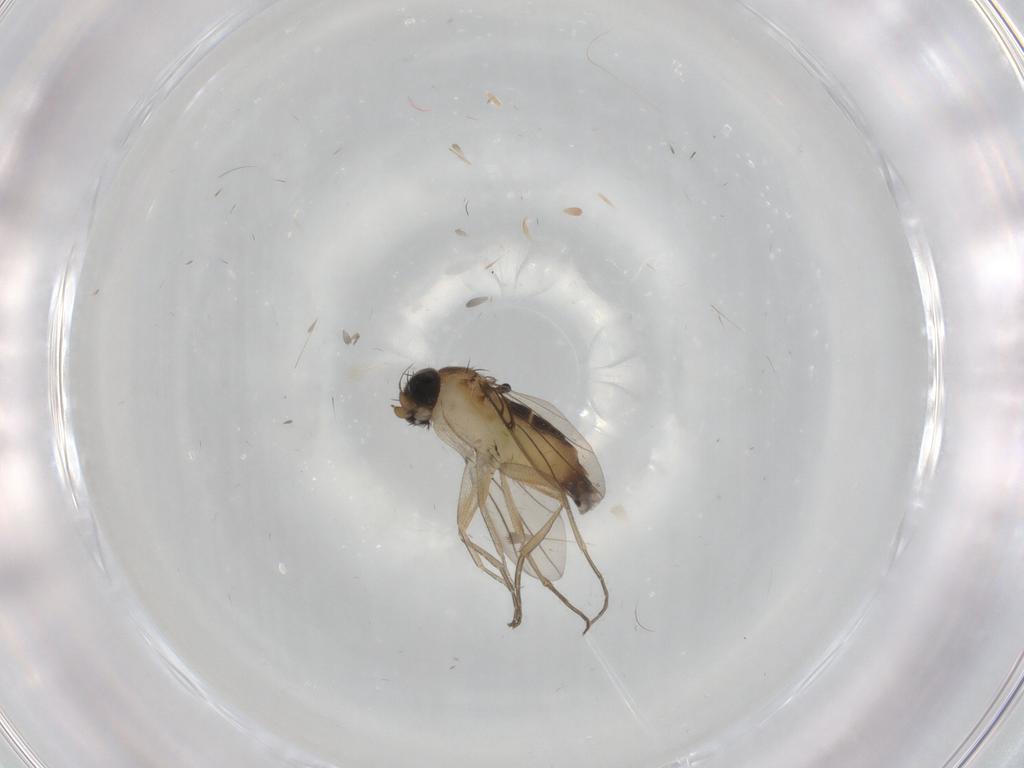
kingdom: Animalia
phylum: Arthropoda
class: Insecta
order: Diptera
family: Phoridae
